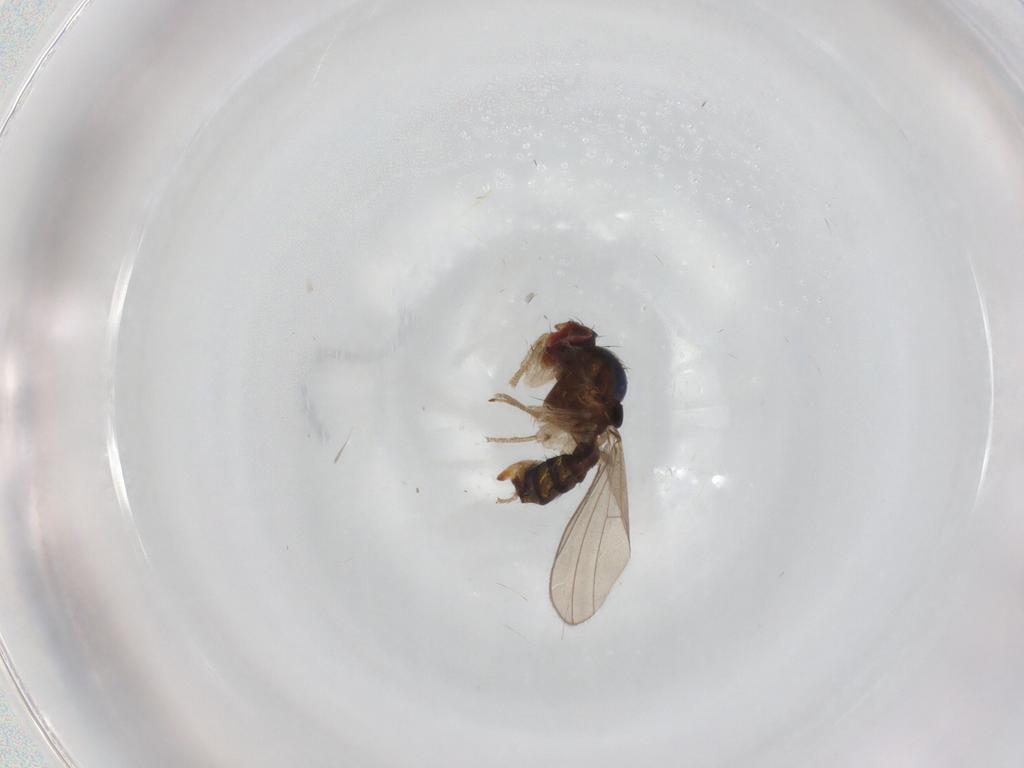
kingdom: Animalia
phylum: Arthropoda
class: Insecta
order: Diptera
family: Drosophilidae
